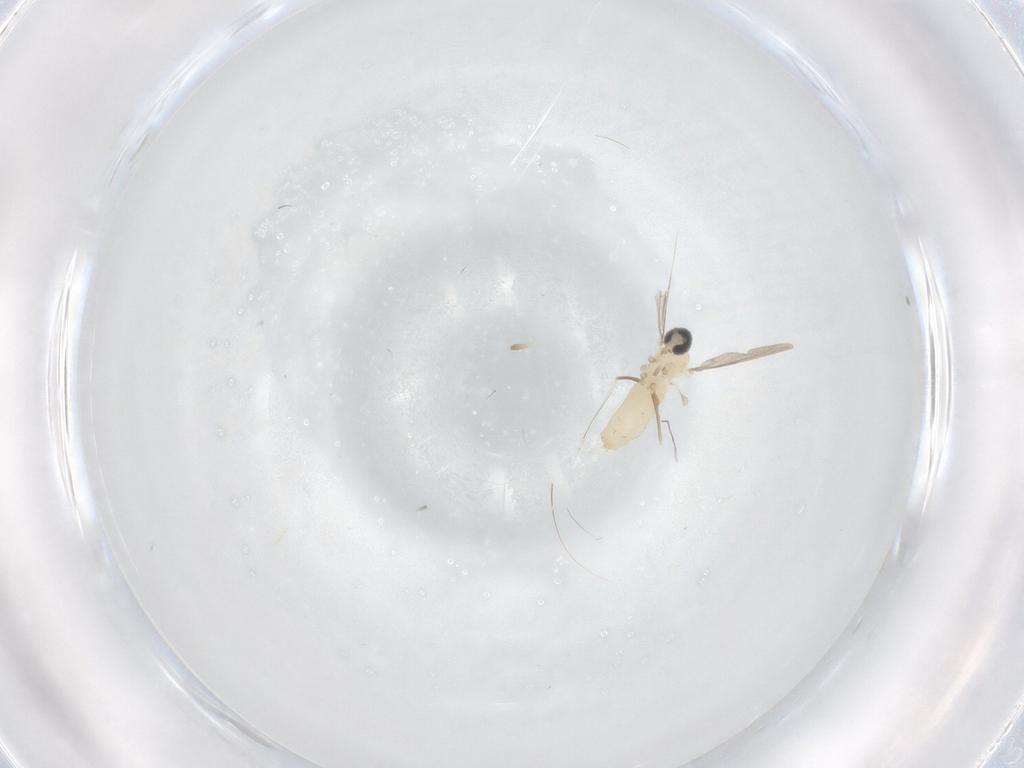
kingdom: Animalia
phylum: Arthropoda
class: Insecta
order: Diptera
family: Cecidomyiidae
